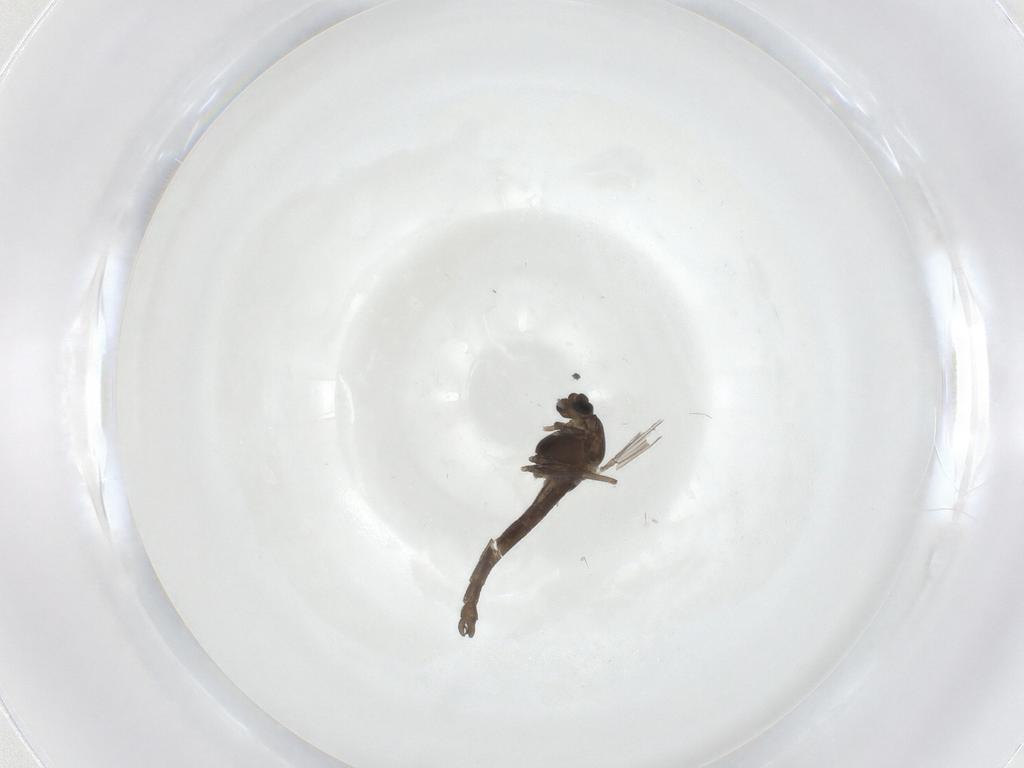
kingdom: Animalia
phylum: Arthropoda
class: Insecta
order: Diptera
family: Chironomidae
